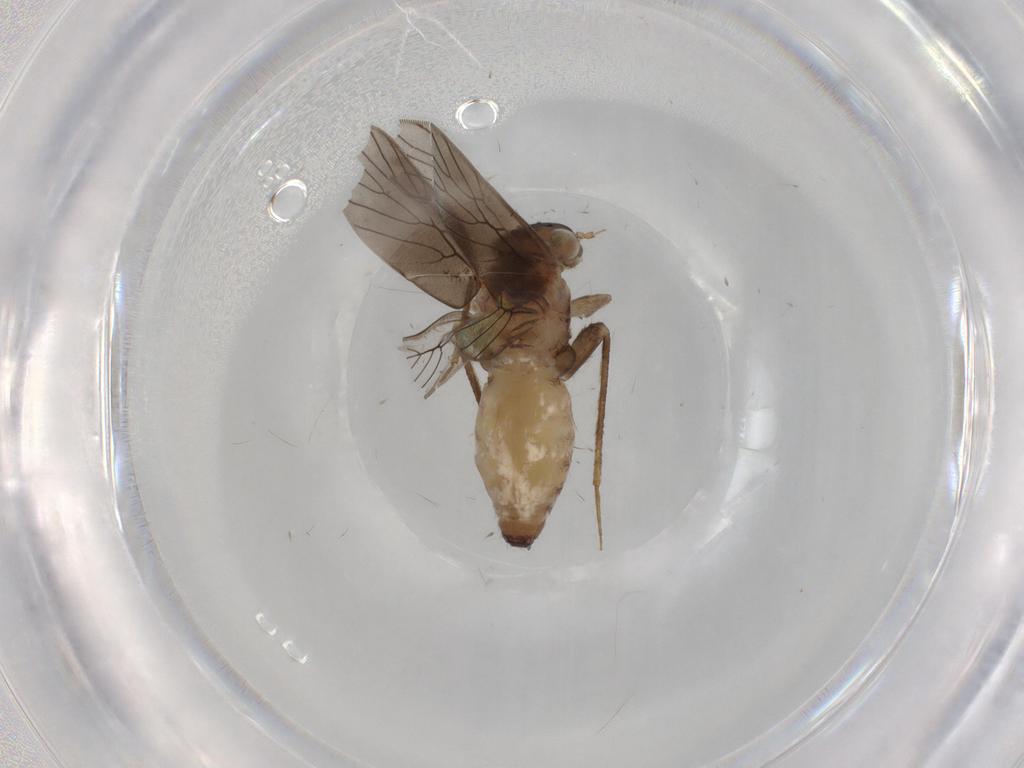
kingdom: Animalia
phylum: Arthropoda
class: Insecta
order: Psocodea
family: Lepidopsocidae
